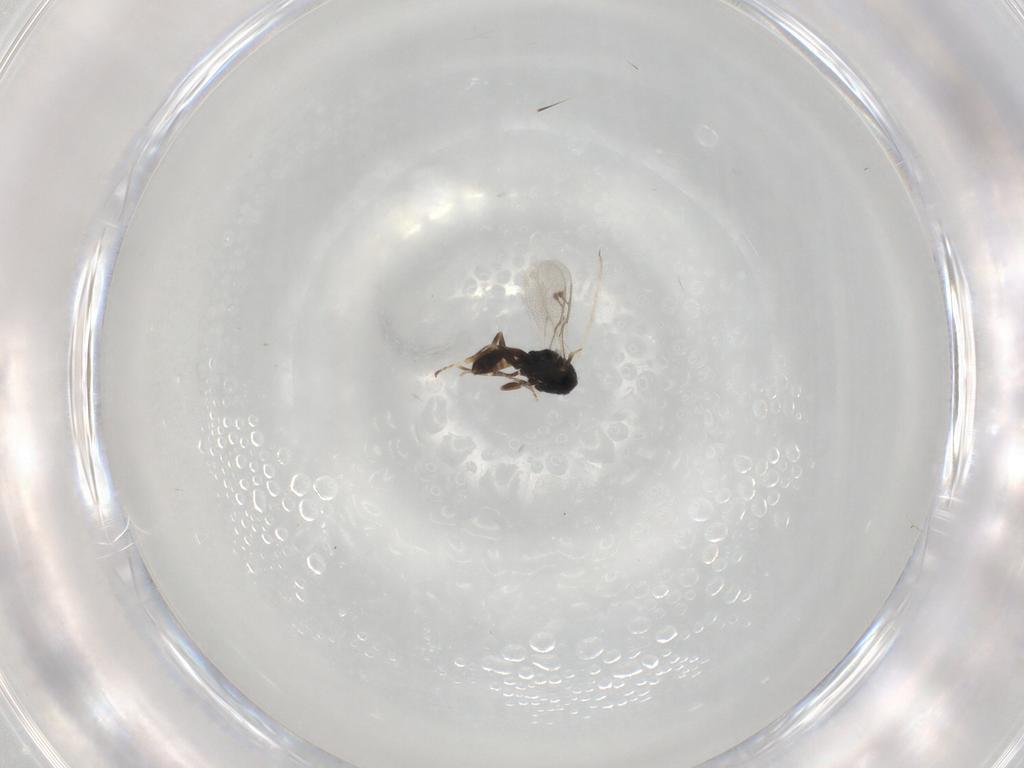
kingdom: Animalia
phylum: Arthropoda
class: Insecta
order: Hymenoptera
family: Pteromalidae
